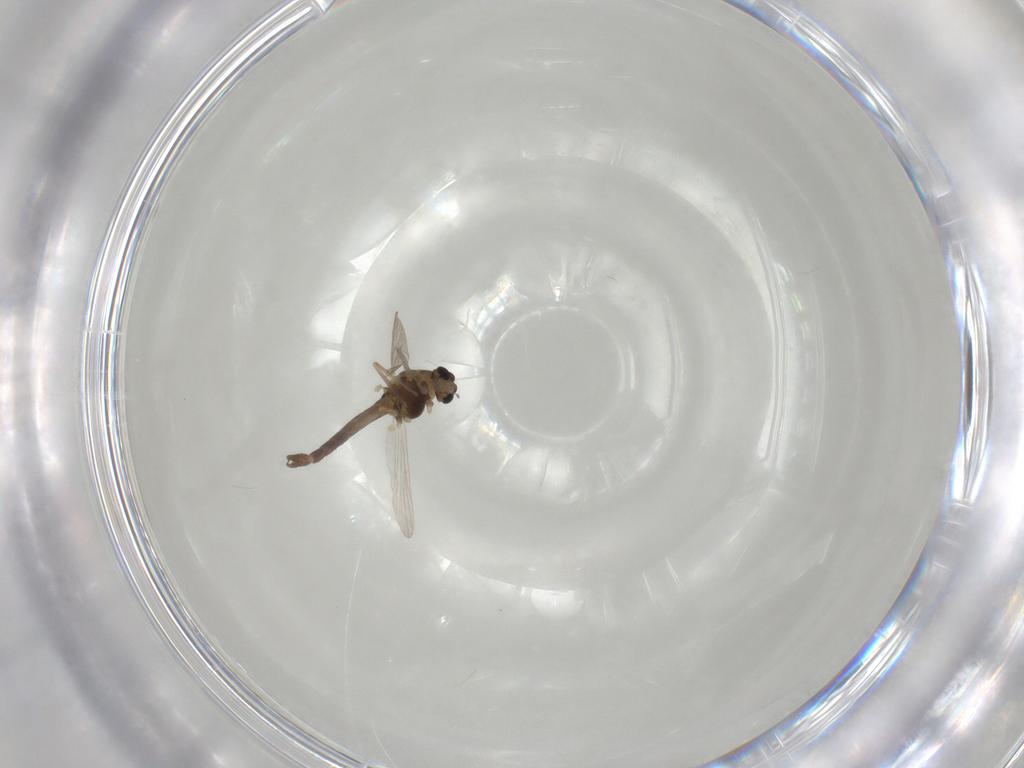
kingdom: Animalia
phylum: Arthropoda
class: Insecta
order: Diptera
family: Chironomidae
